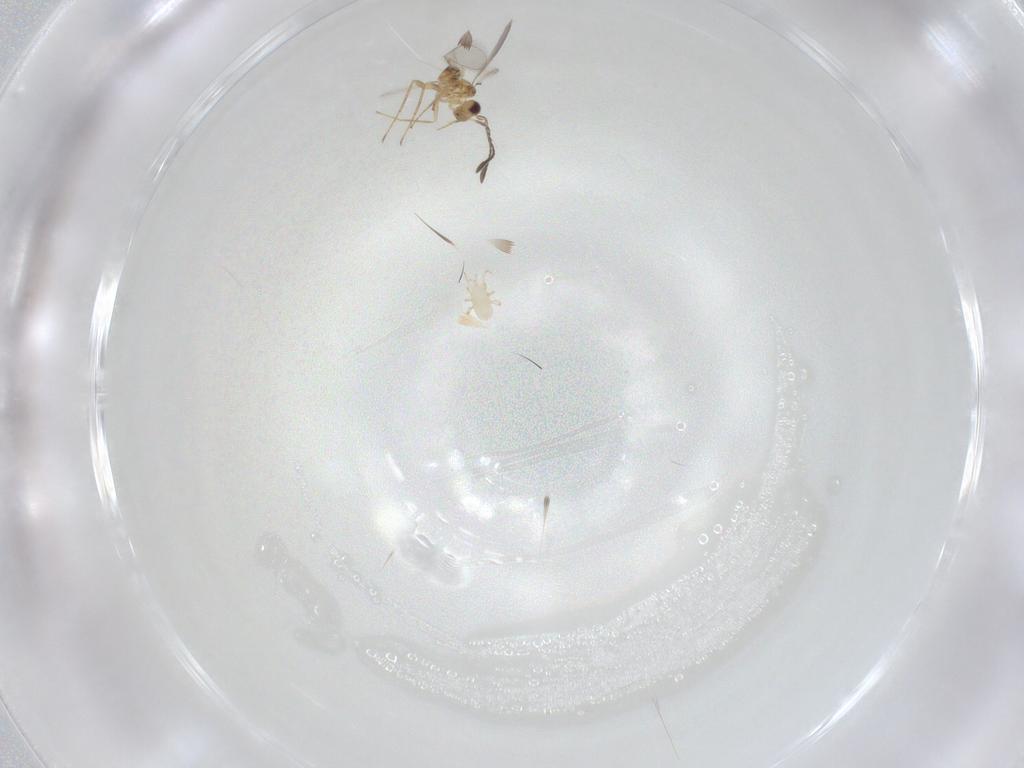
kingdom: Animalia
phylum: Arthropoda
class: Arachnida
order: Mesostigmata
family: Phytoseiidae
